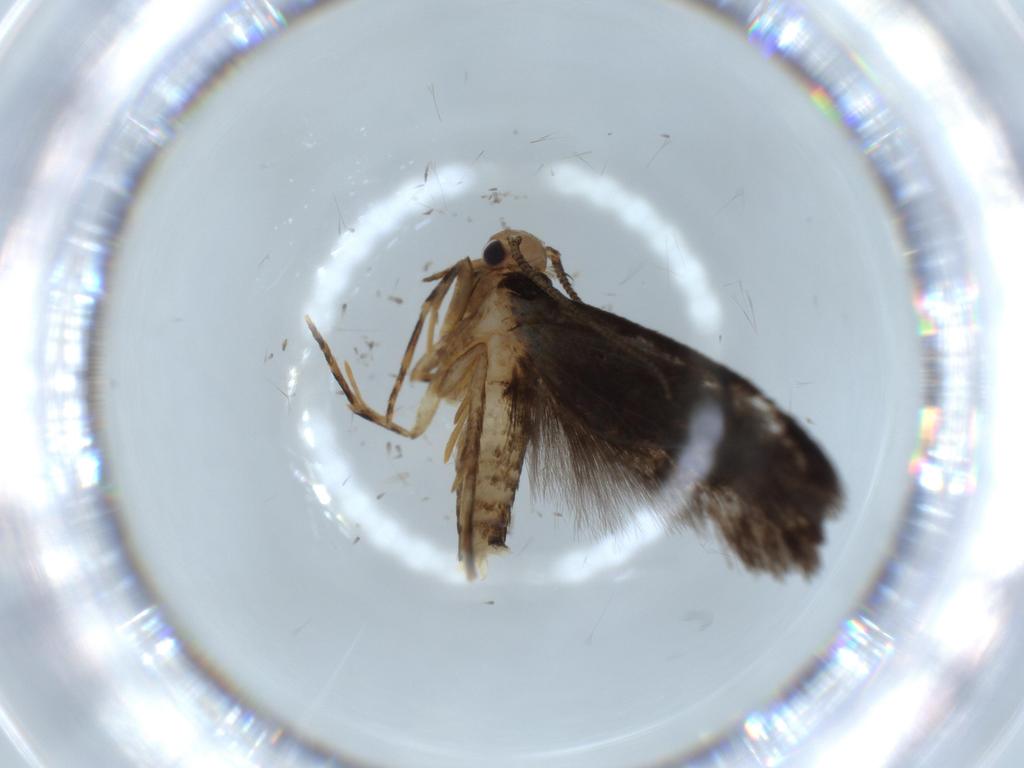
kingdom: Animalia
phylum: Arthropoda
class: Insecta
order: Lepidoptera
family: Tineidae
